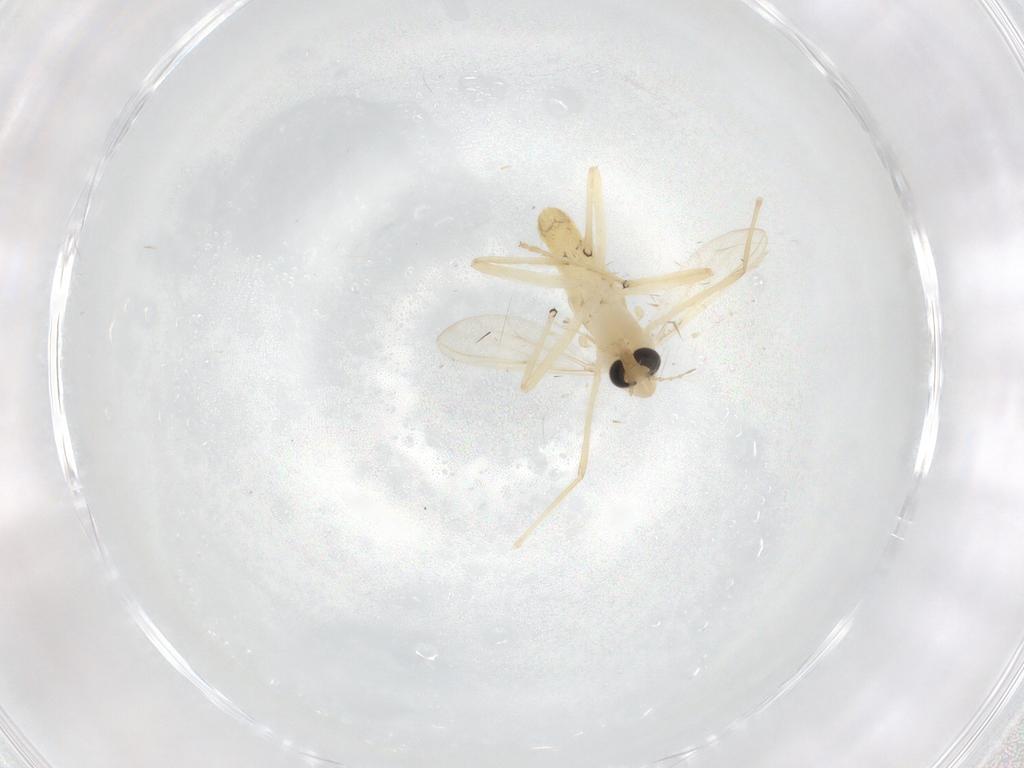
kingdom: Animalia
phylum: Arthropoda
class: Insecta
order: Diptera
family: Chironomidae
